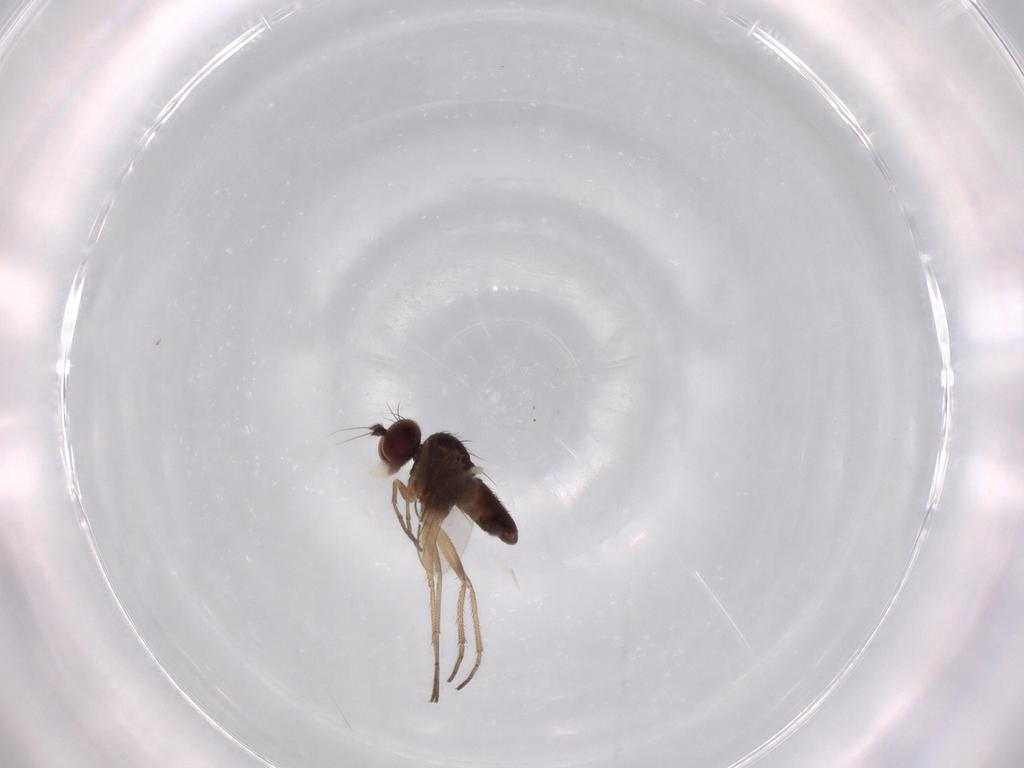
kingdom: Animalia
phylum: Arthropoda
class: Insecta
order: Diptera
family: Dolichopodidae
